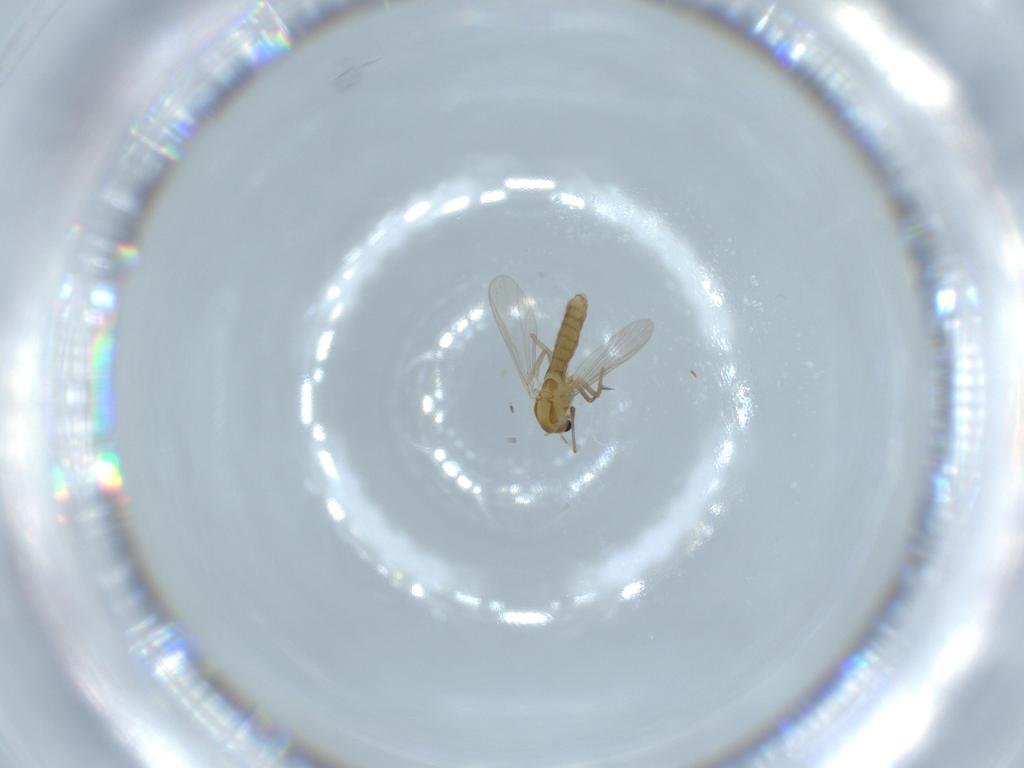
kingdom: Animalia
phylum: Arthropoda
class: Insecta
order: Diptera
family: Chironomidae
